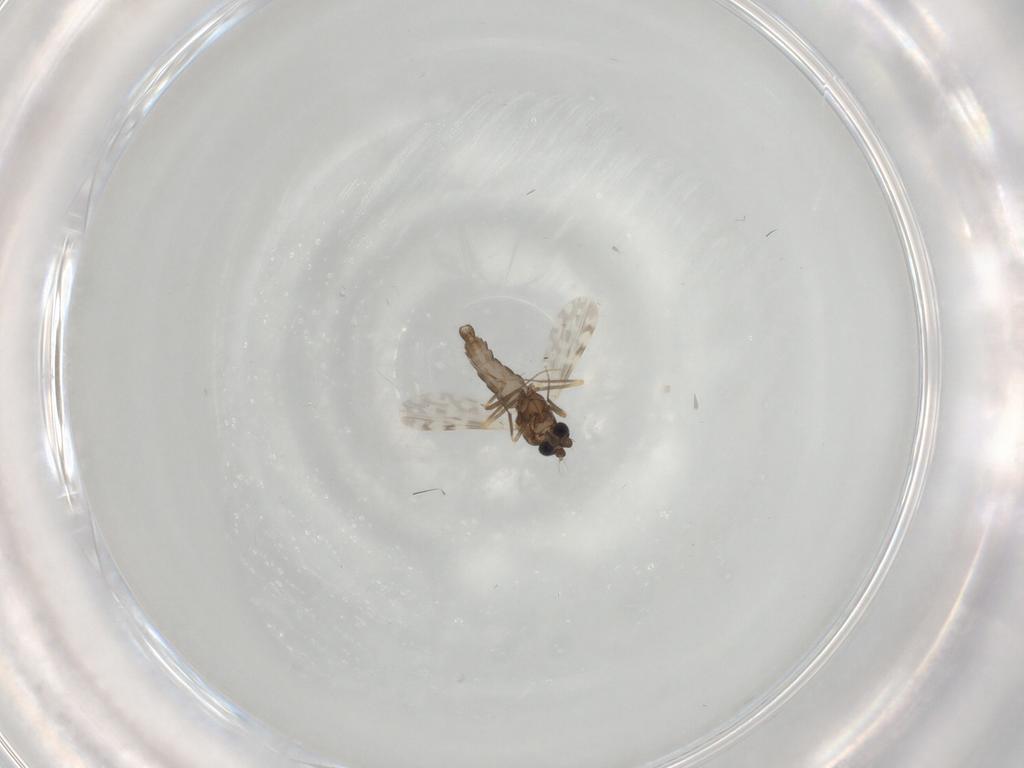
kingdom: Animalia
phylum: Arthropoda
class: Insecta
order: Diptera
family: Ceratopogonidae
